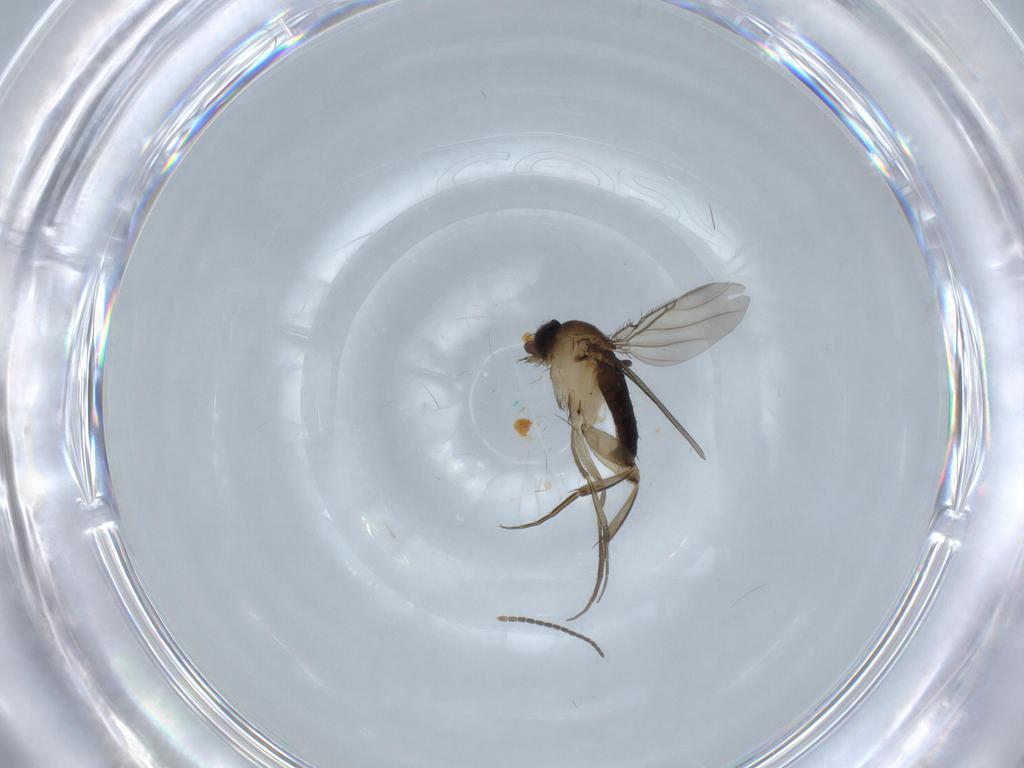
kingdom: Animalia
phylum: Arthropoda
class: Insecta
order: Diptera
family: Phoridae
